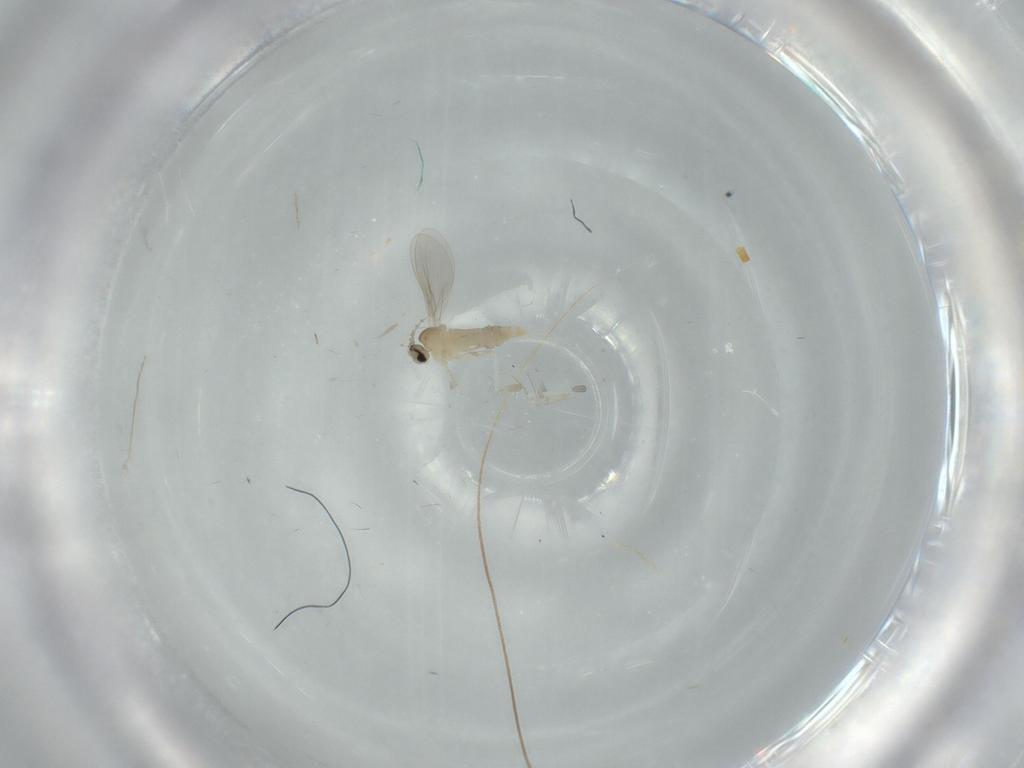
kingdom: Animalia
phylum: Arthropoda
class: Insecta
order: Diptera
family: Cecidomyiidae
